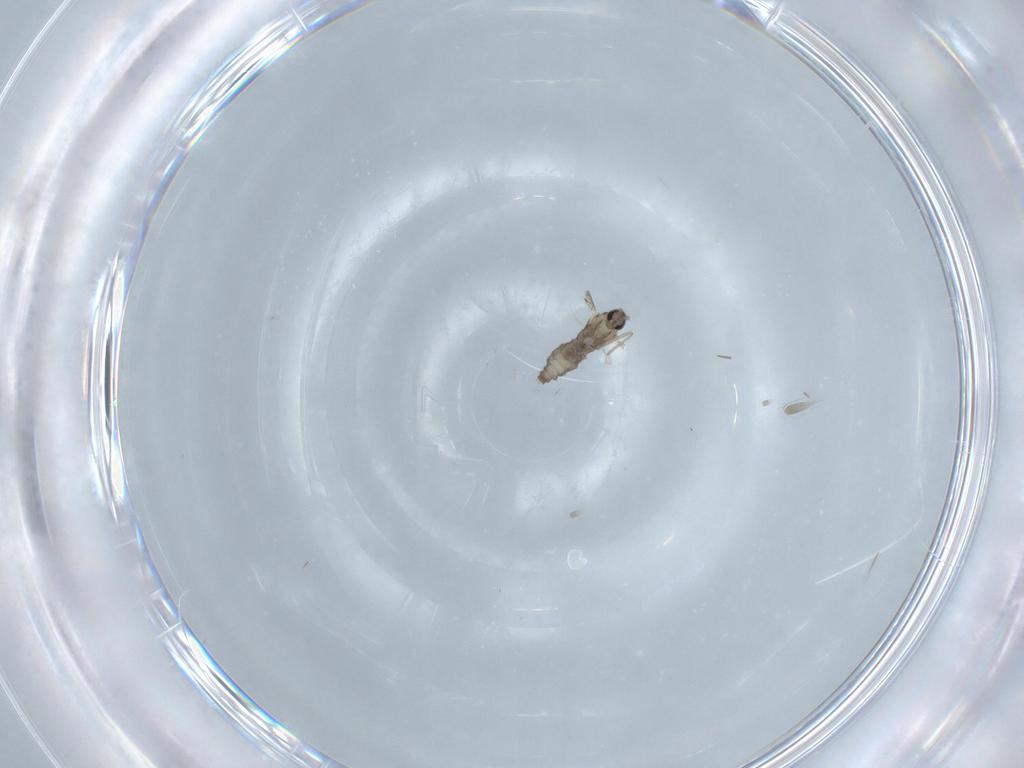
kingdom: Animalia
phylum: Arthropoda
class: Insecta
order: Diptera
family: Cecidomyiidae
